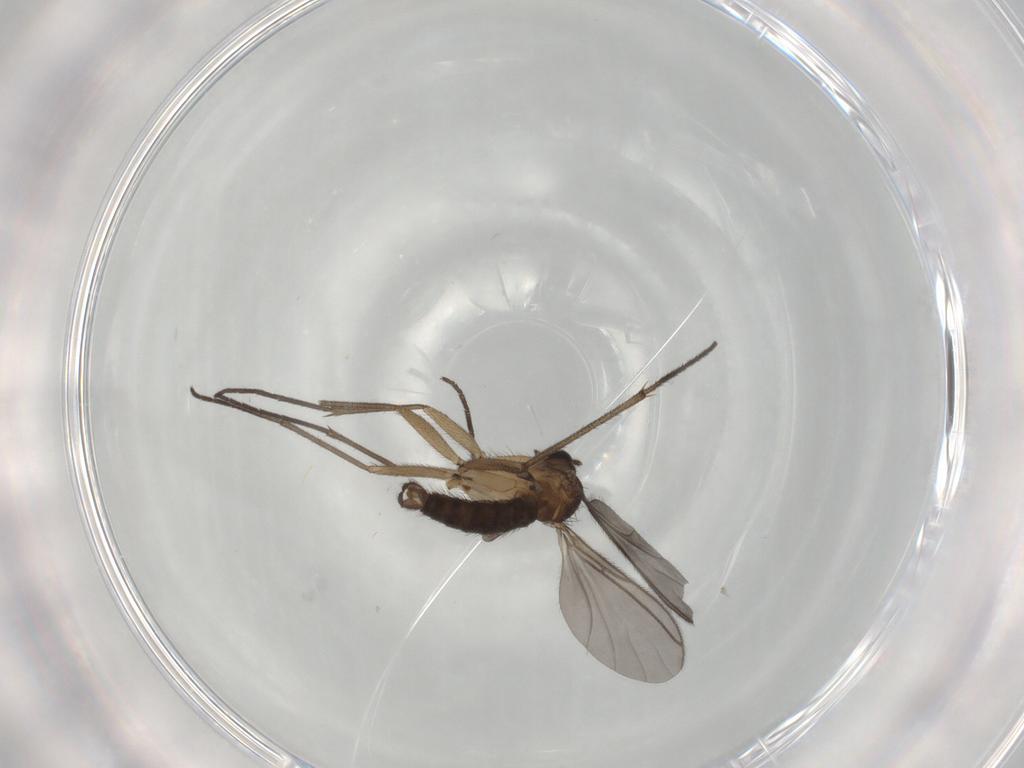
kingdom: Animalia
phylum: Arthropoda
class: Insecta
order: Diptera
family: Sciaridae
